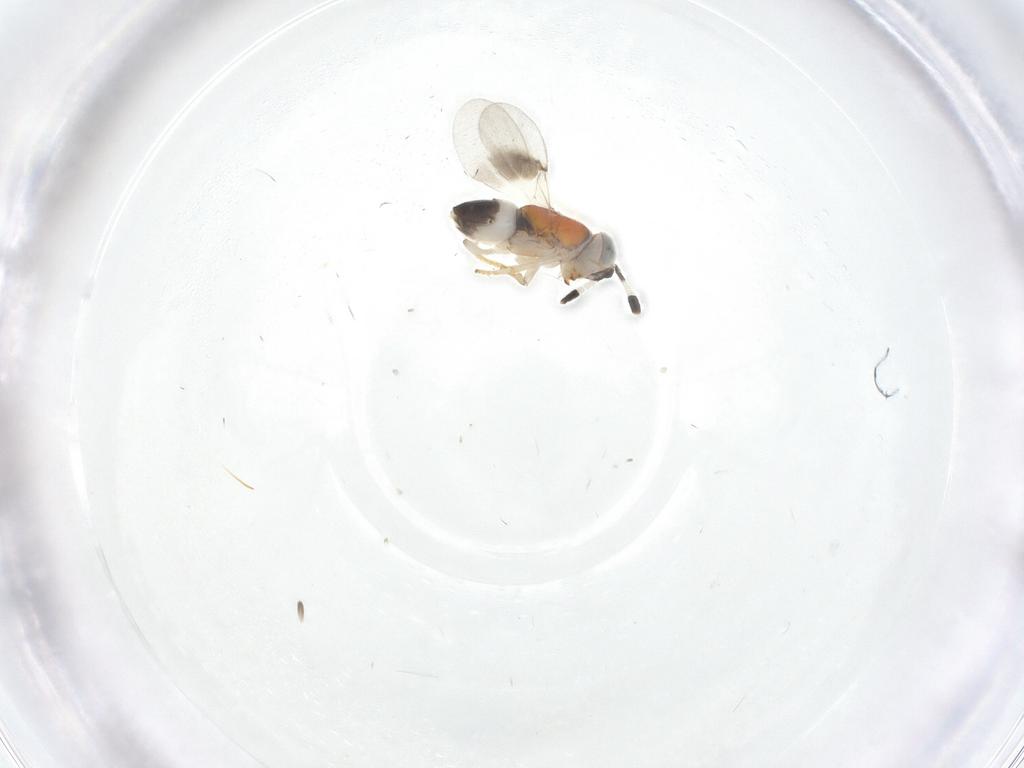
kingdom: Animalia
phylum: Arthropoda
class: Insecta
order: Hymenoptera
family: Encyrtidae
